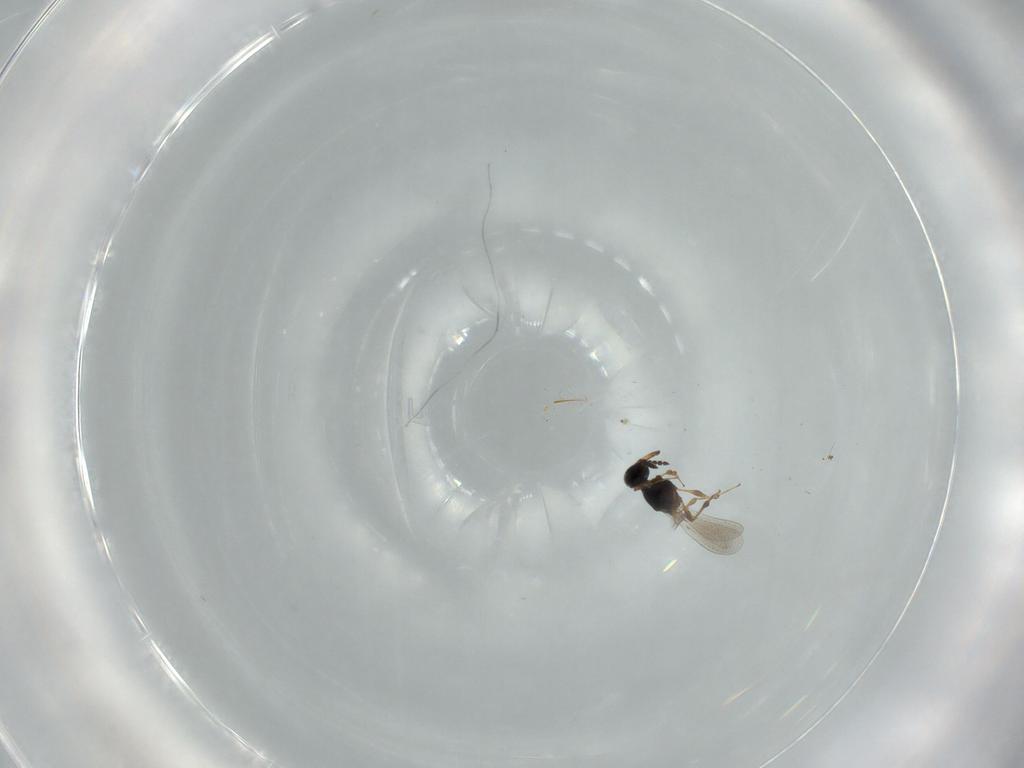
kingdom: Animalia
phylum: Arthropoda
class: Insecta
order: Hymenoptera
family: Platygastridae
